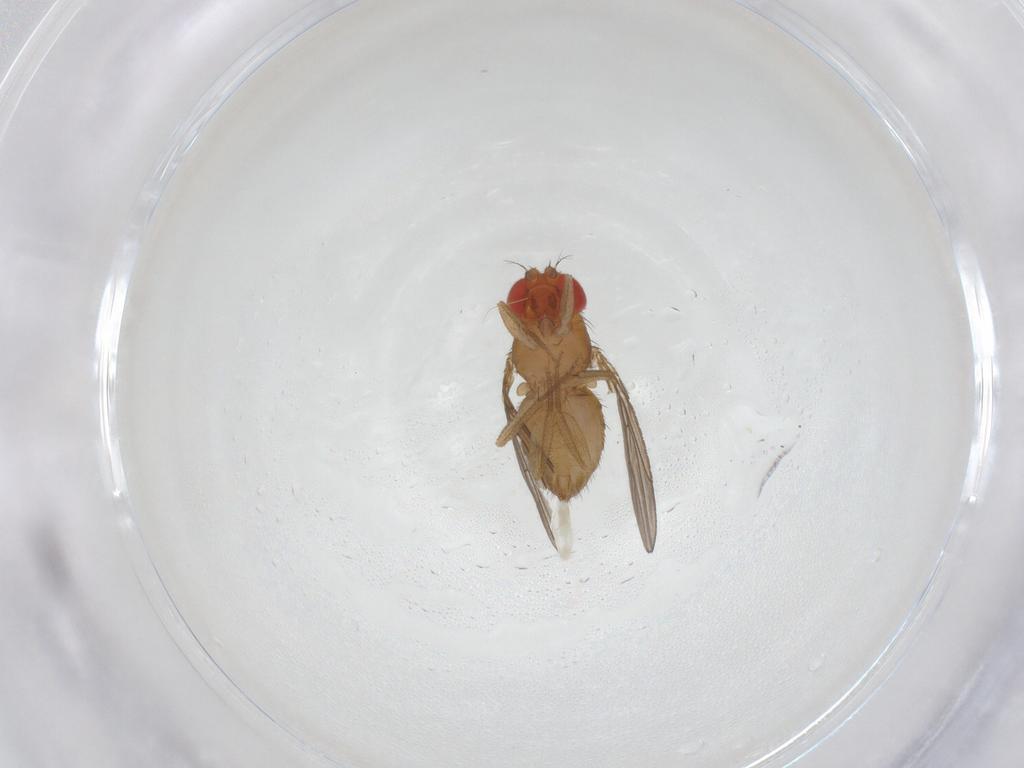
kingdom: Animalia
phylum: Arthropoda
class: Insecta
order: Diptera
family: Drosophilidae
